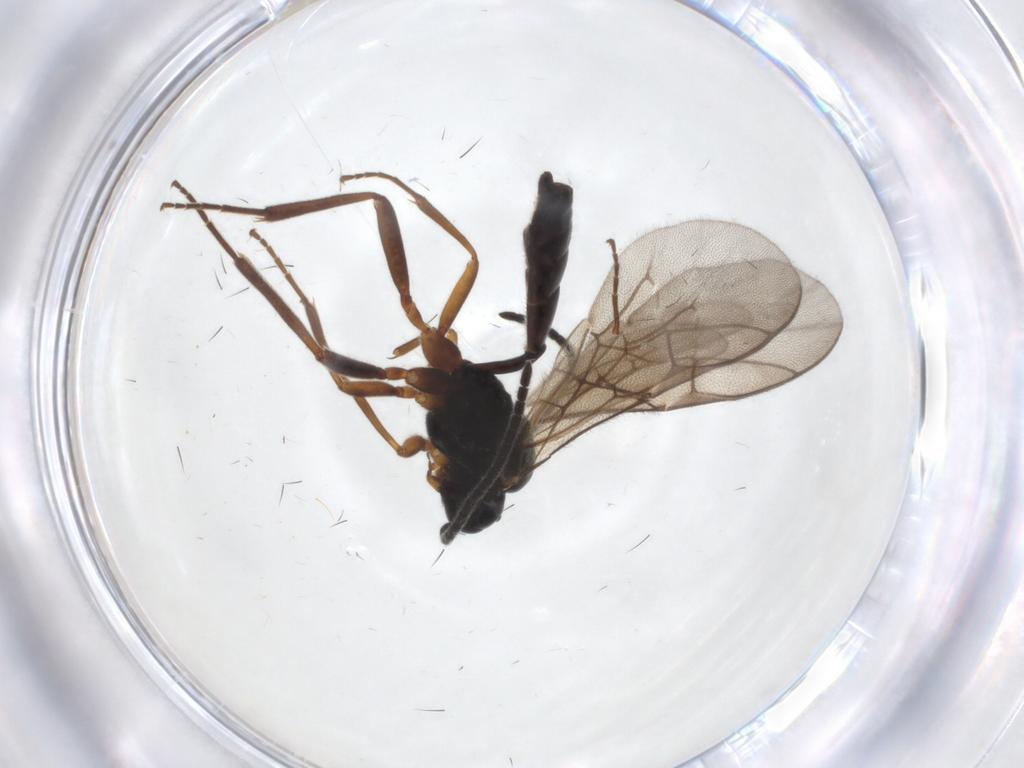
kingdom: Animalia
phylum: Arthropoda
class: Insecta
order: Hymenoptera
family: Ichneumonidae
